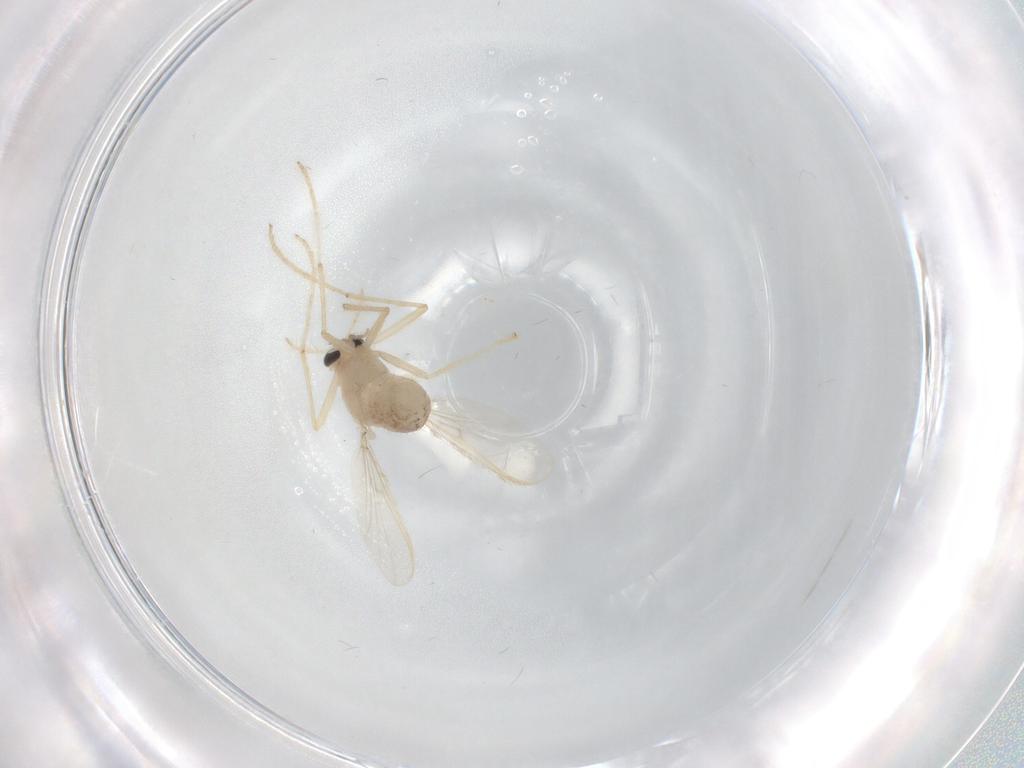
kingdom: Animalia
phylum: Arthropoda
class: Insecta
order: Diptera
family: Chironomidae
